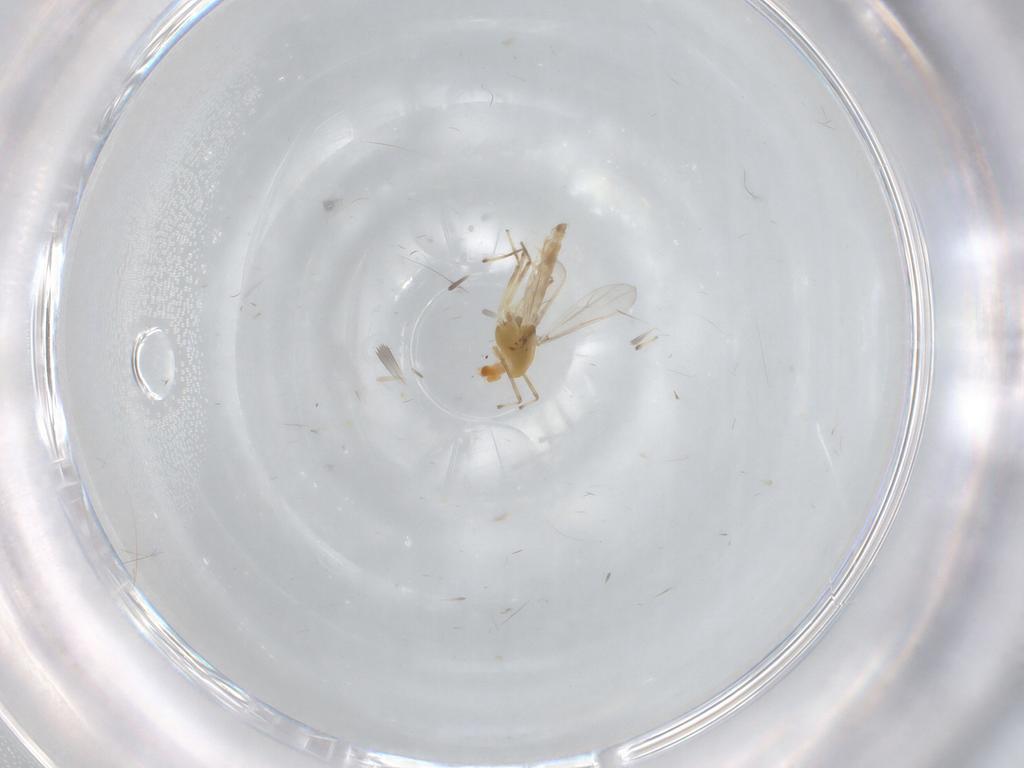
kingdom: Animalia
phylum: Arthropoda
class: Insecta
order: Diptera
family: Chironomidae
